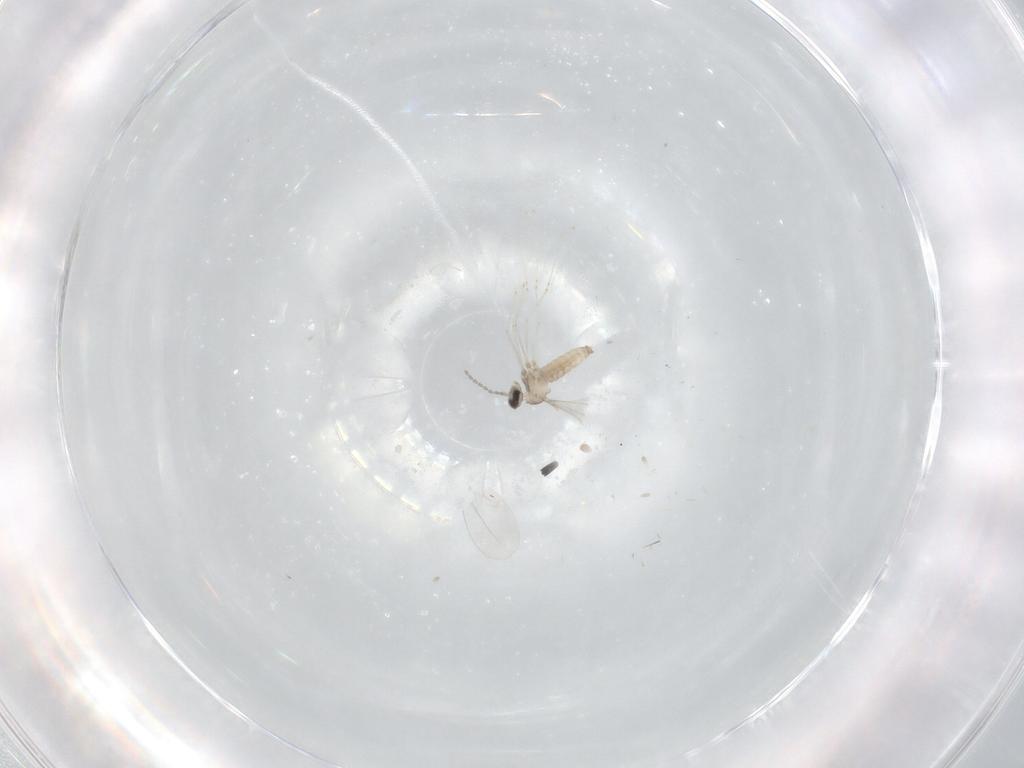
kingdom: Animalia
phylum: Arthropoda
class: Insecta
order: Diptera
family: Cecidomyiidae
